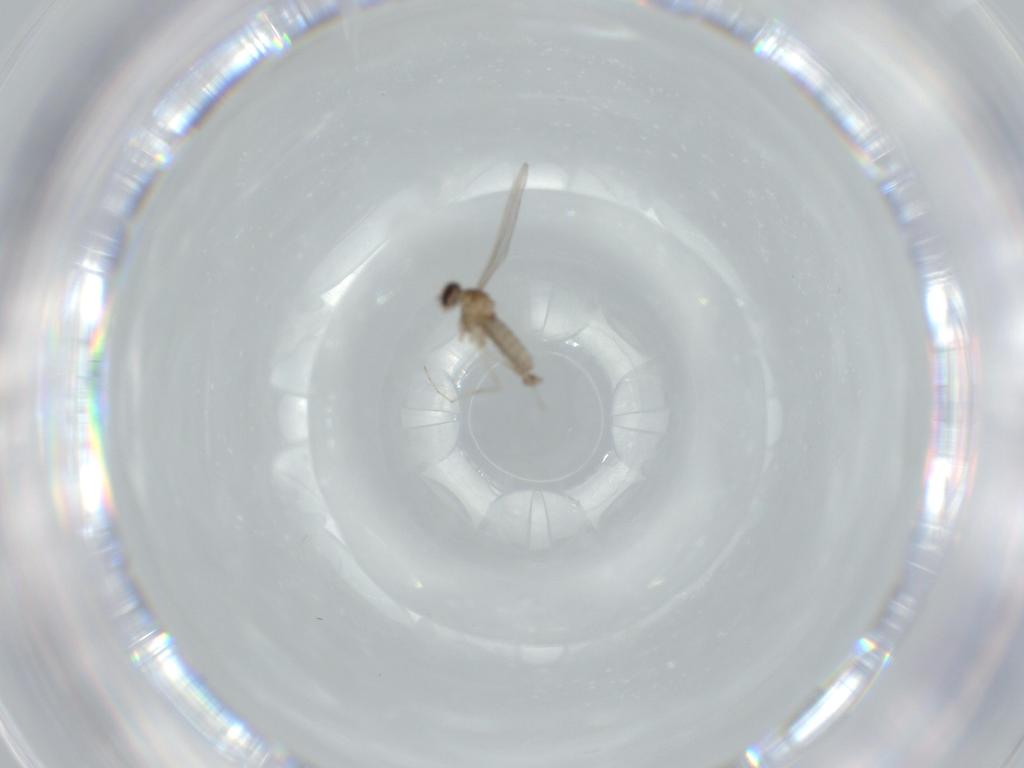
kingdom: Animalia
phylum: Arthropoda
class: Insecta
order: Diptera
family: Cecidomyiidae
